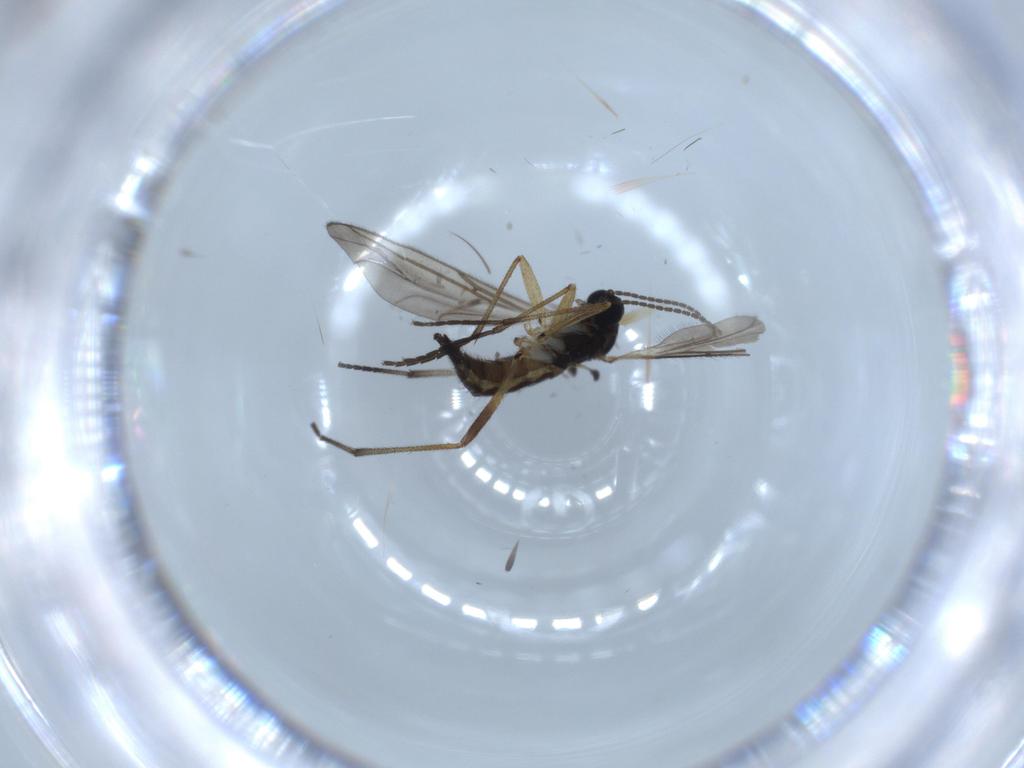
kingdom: Animalia
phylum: Arthropoda
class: Insecta
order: Diptera
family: Sciaridae
